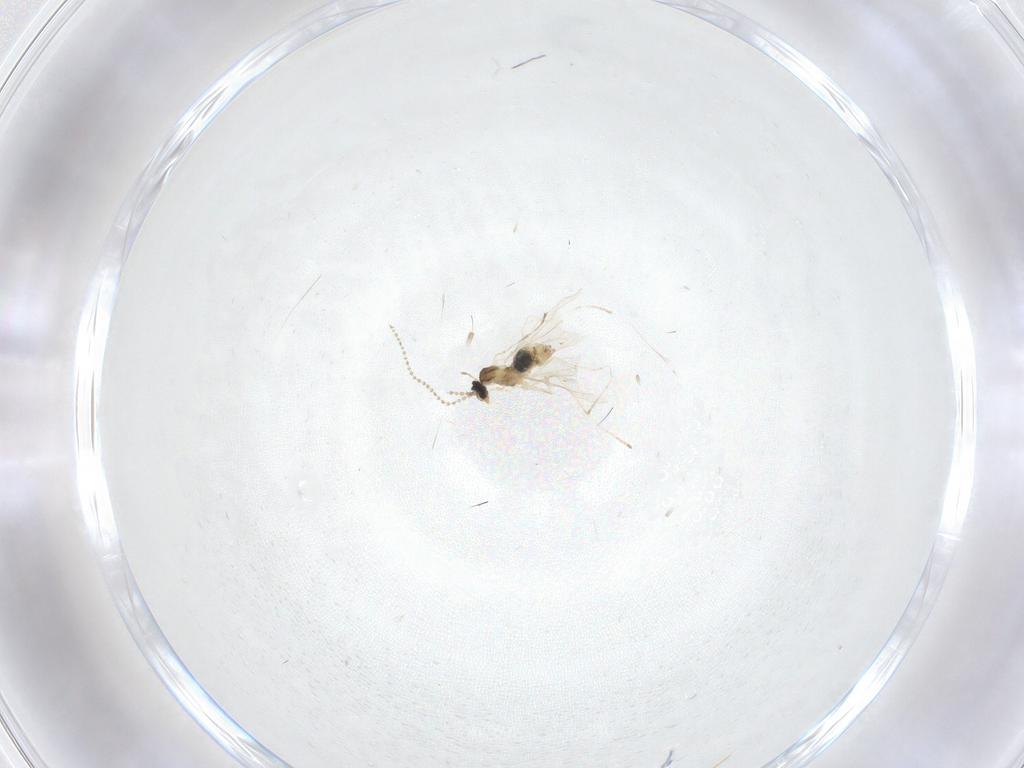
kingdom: Animalia
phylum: Arthropoda
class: Insecta
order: Diptera
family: Cecidomyiidae
